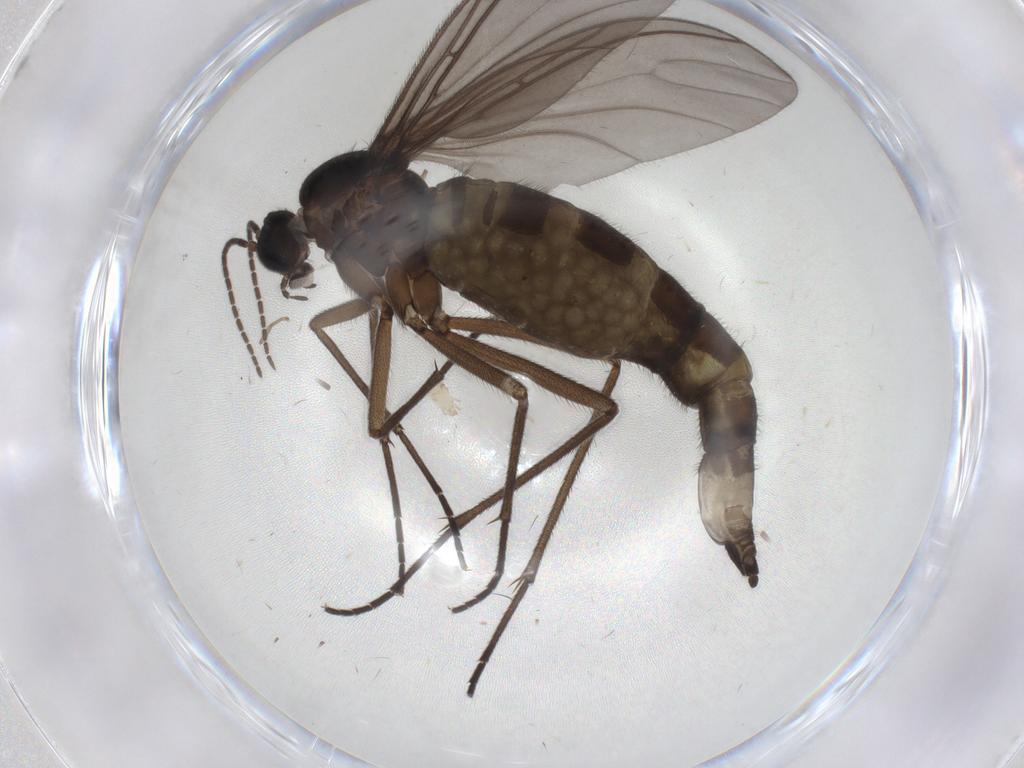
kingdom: Animalia
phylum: Arthropoda
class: Insecta
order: Diptera
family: Sciaridae
